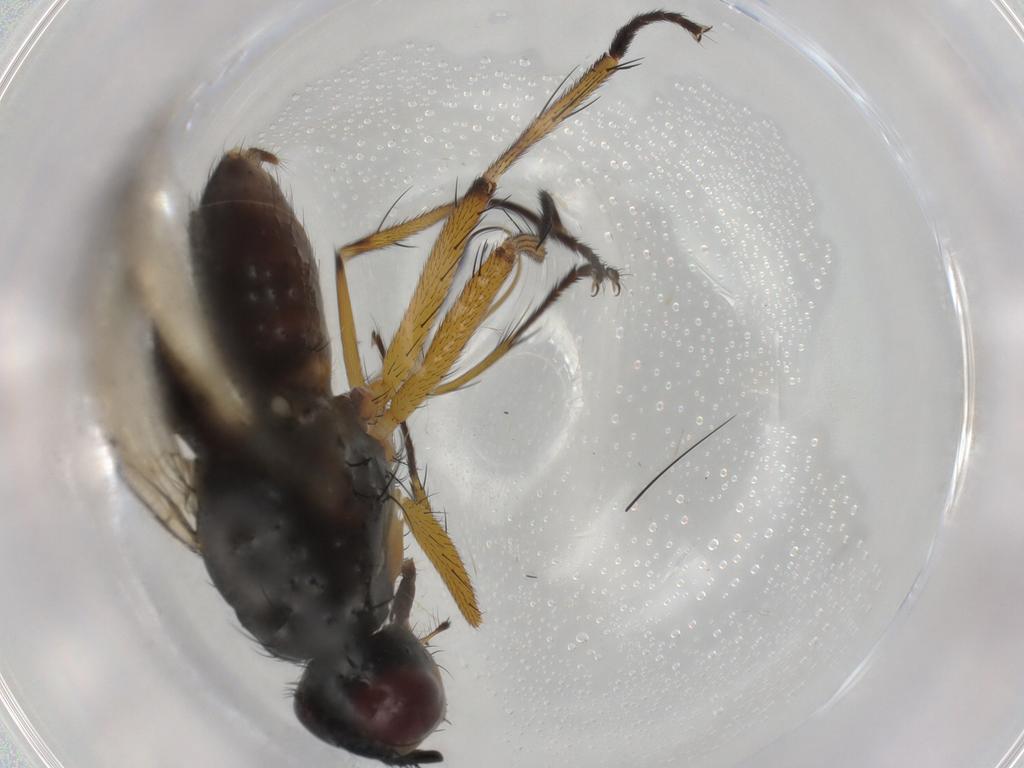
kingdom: Animalia
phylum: Arthropoda
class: Insecta
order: Diptera
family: Muscidae
